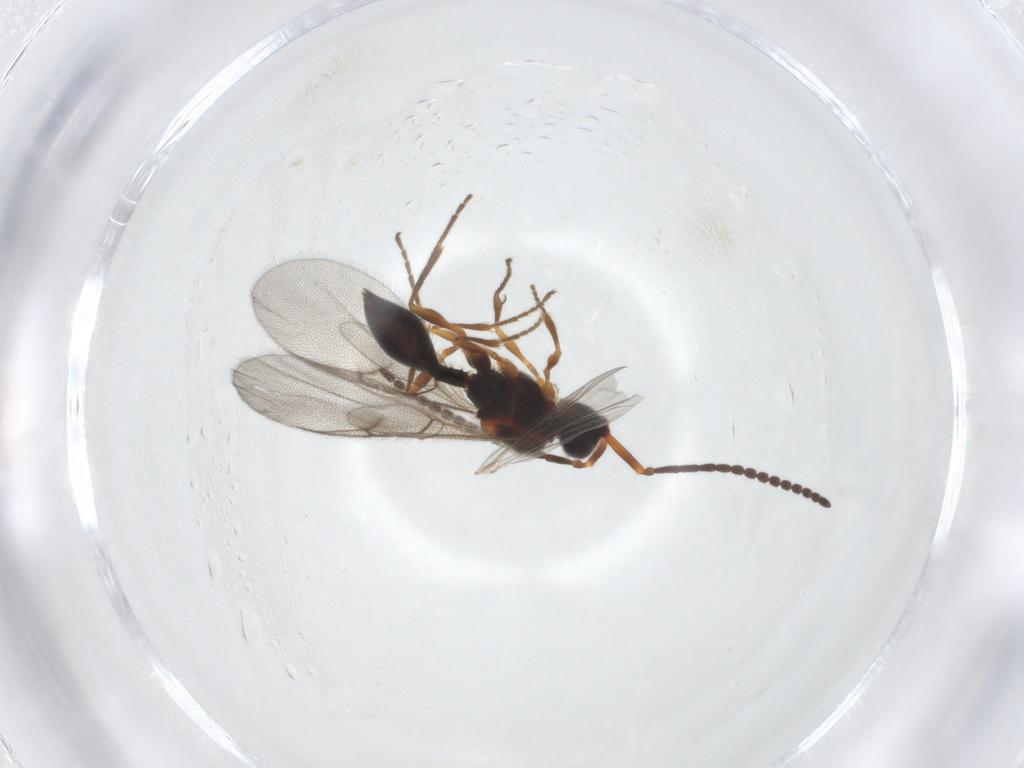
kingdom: Animalia
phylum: Arthropoda
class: Insecta
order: Hymenoptera
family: Diapriidae
